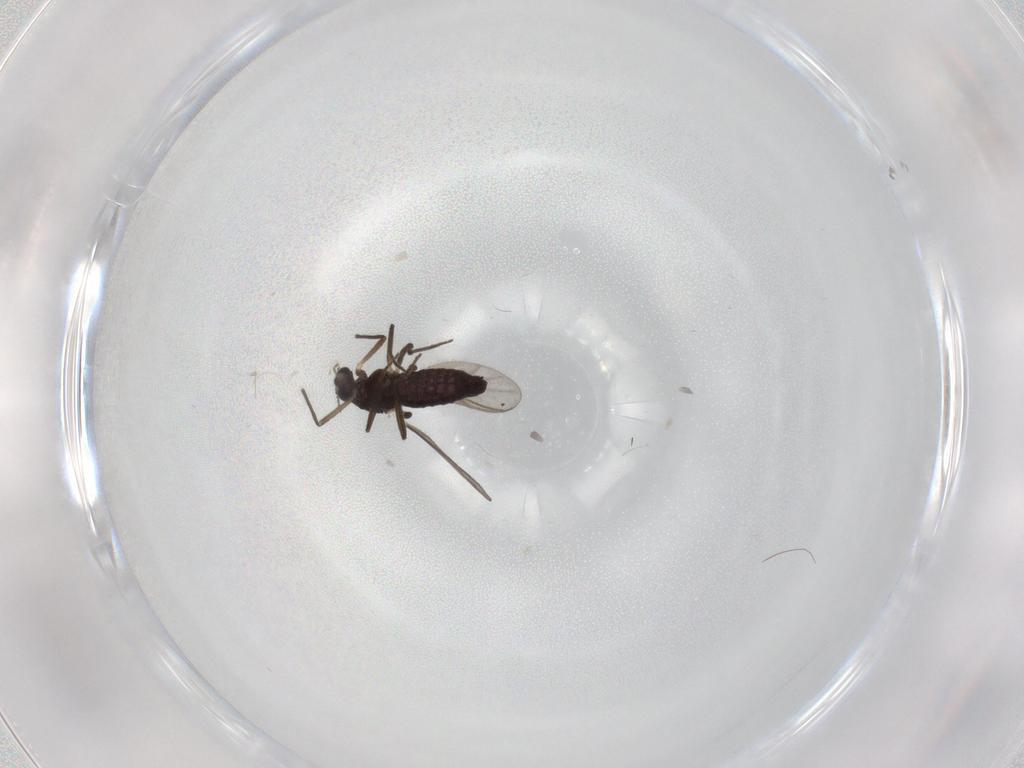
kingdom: Animalia
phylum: Arthropoda
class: Insecta
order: Diptera
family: Chironomidae
